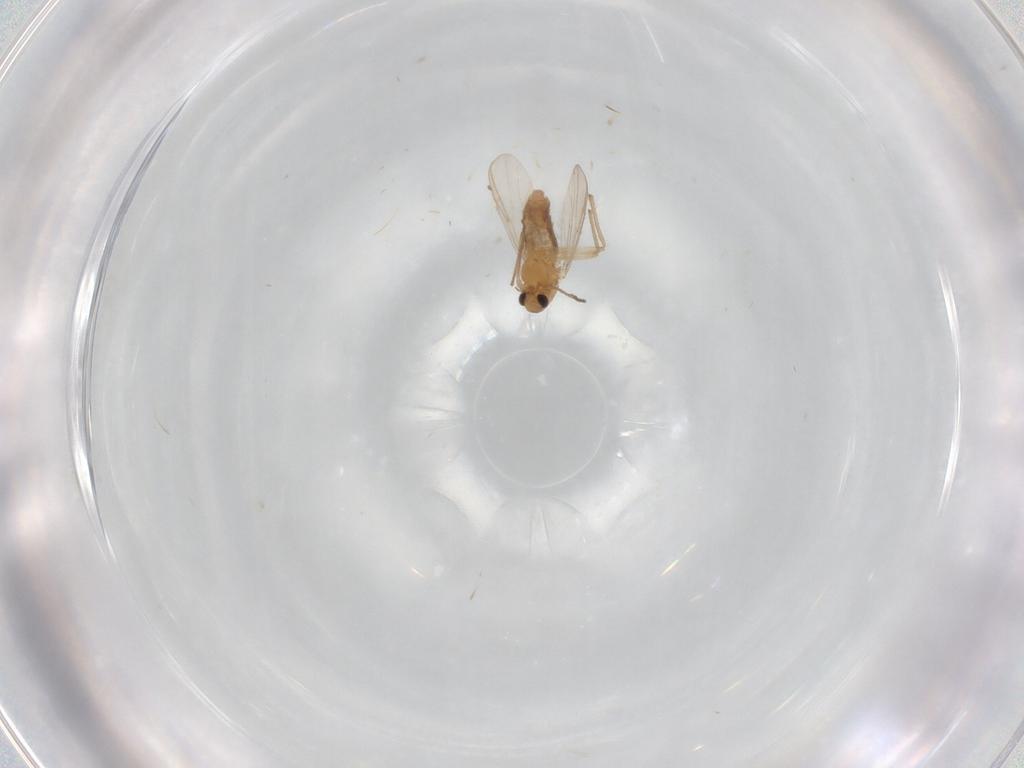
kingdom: Animalia
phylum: Arthropoda
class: Insecta
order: Diptera
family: Chironomidae
